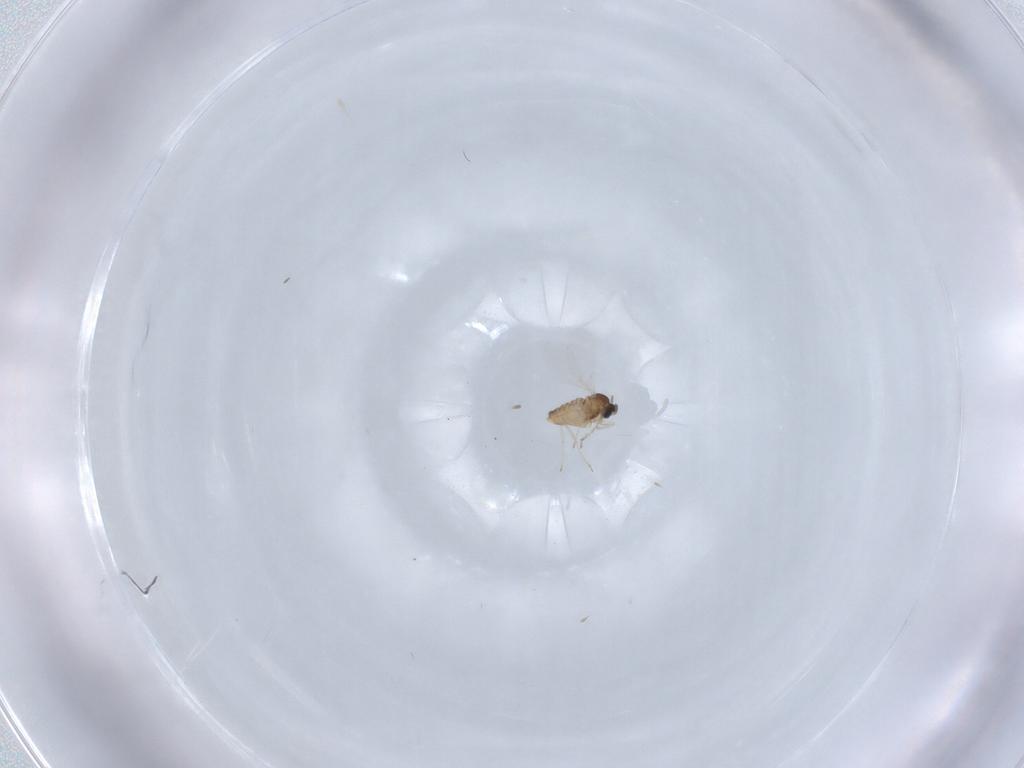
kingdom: Animalia
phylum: Arthropoda
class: Insecta
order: Diptera
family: Cecidomyiidae
